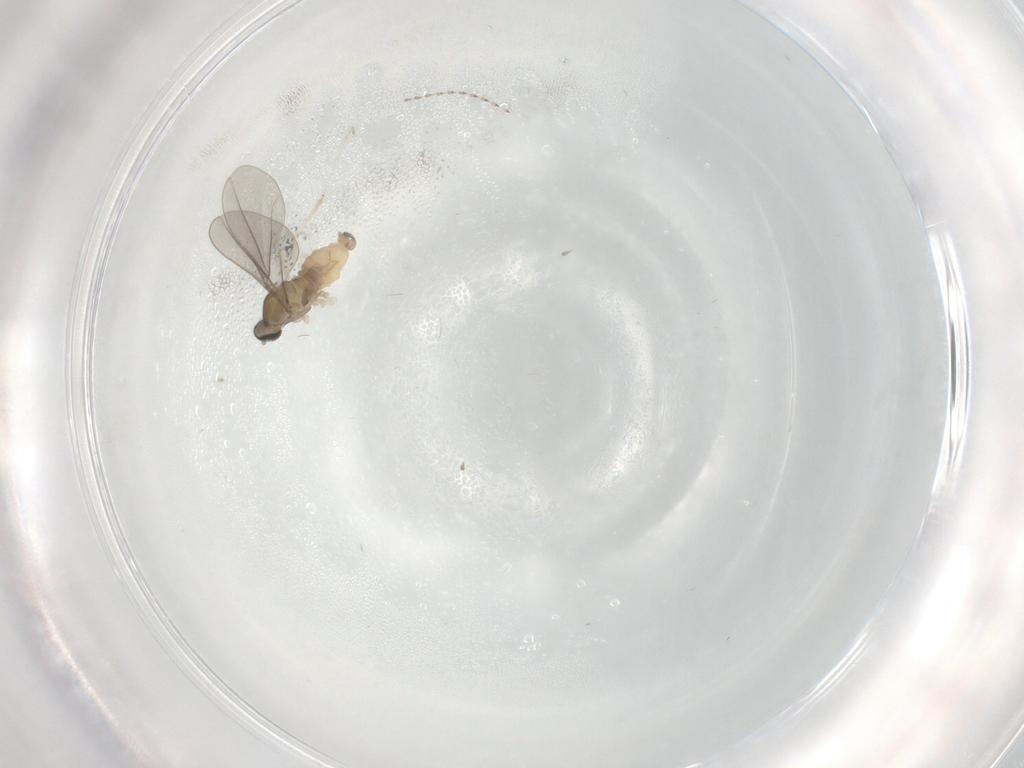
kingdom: Animalia
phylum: Arthropoda
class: Insecta
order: Diptera
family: Cecidomyiidae
